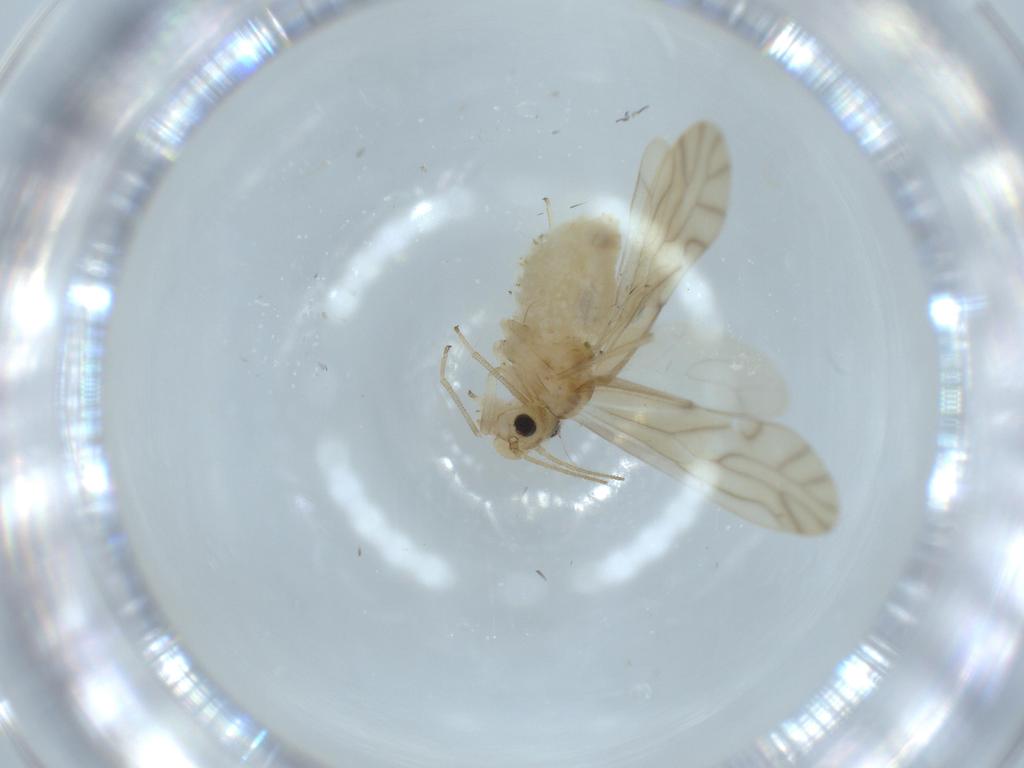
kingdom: Animalia
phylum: Arthropoda
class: Insecta
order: Psocodea
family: Caeciliusidae
